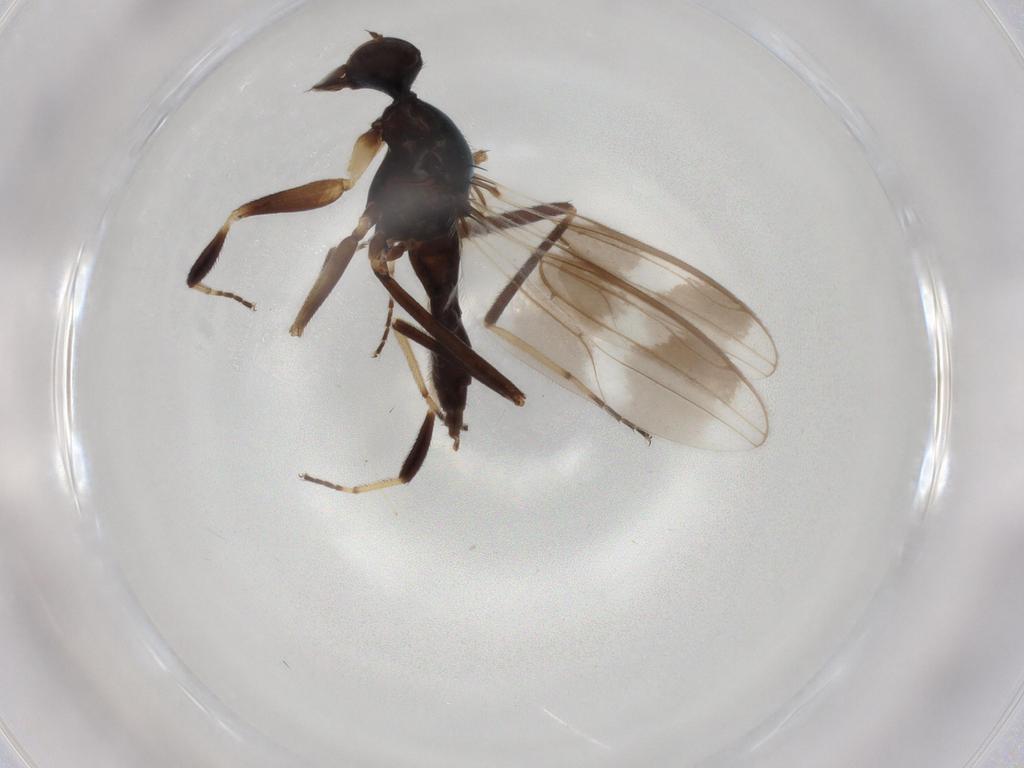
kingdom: Animalia
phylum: Arthropoda
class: Insecta
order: Diptera
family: Hybotidae
